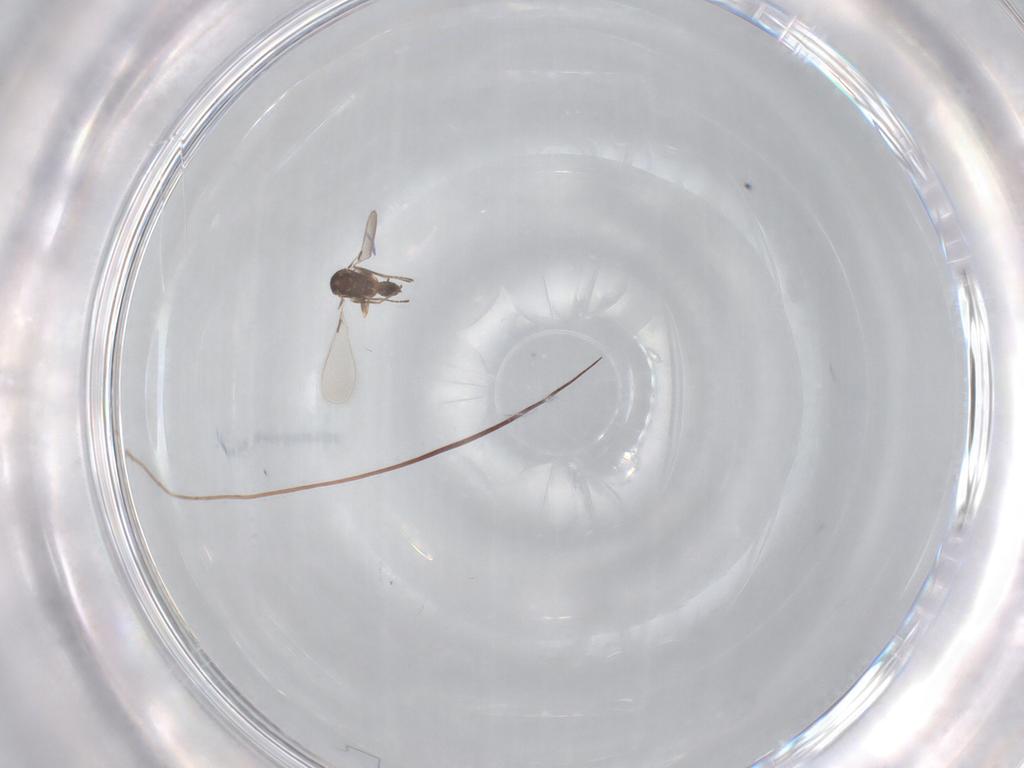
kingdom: Animalia
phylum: Arthropoda
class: Insecta
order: Hymenoptera
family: Mymaridae
